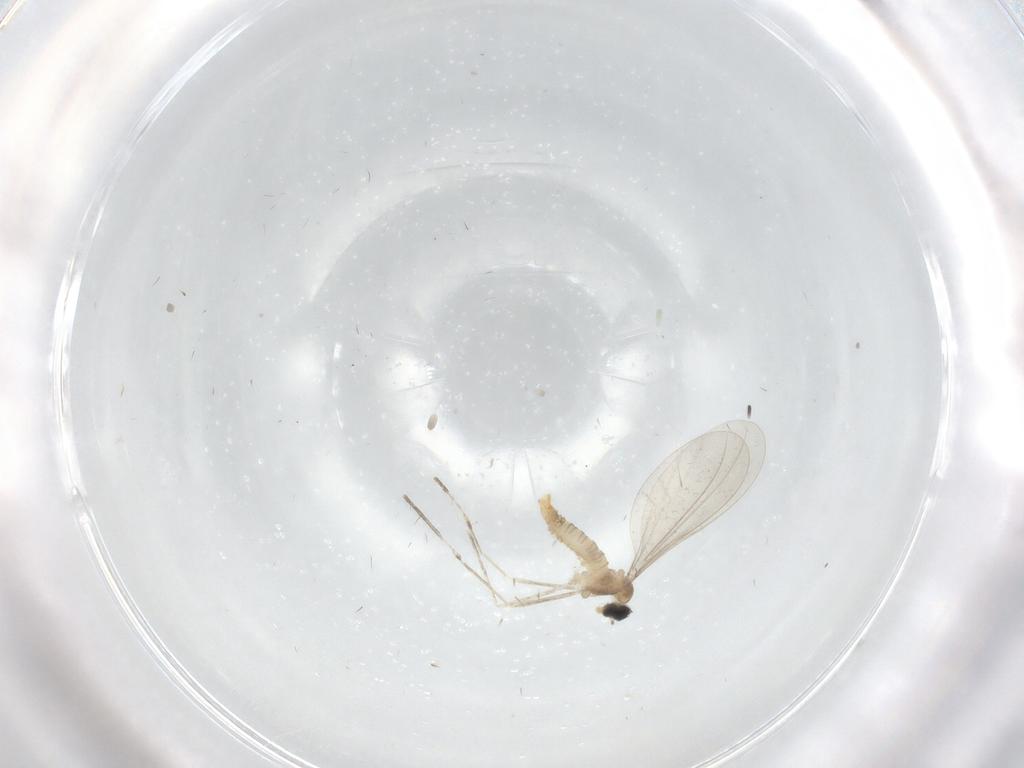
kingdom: Animalia
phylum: Arthropoda
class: Insecta
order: Diptera
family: Cecidomyiidae
